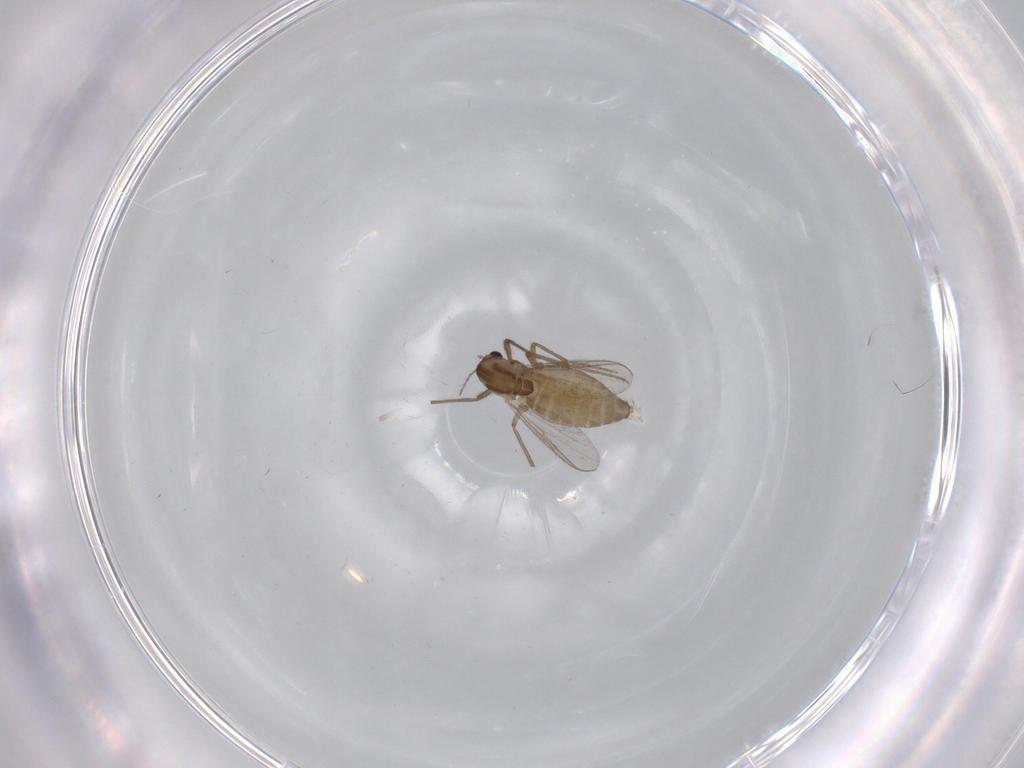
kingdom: Animalia
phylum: Arthropoda
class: Insecta
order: Diptera
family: Chironomidae
